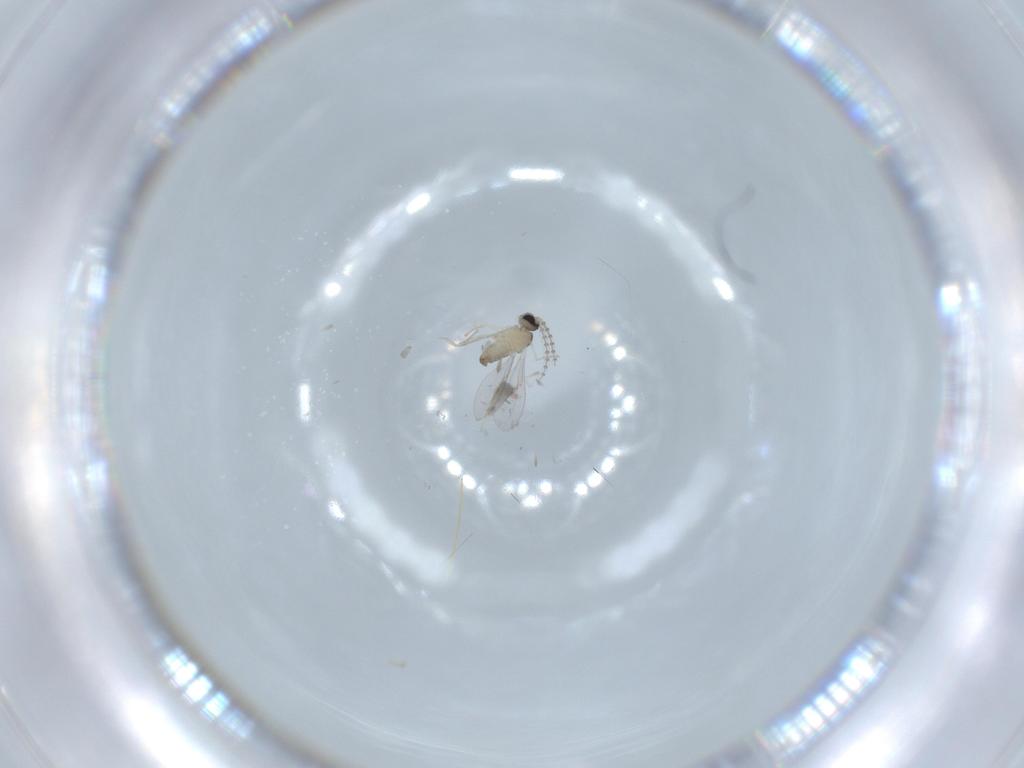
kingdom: Animalia
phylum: Arthropoda
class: Insecta
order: Diptera
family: Cecidomyiidae
